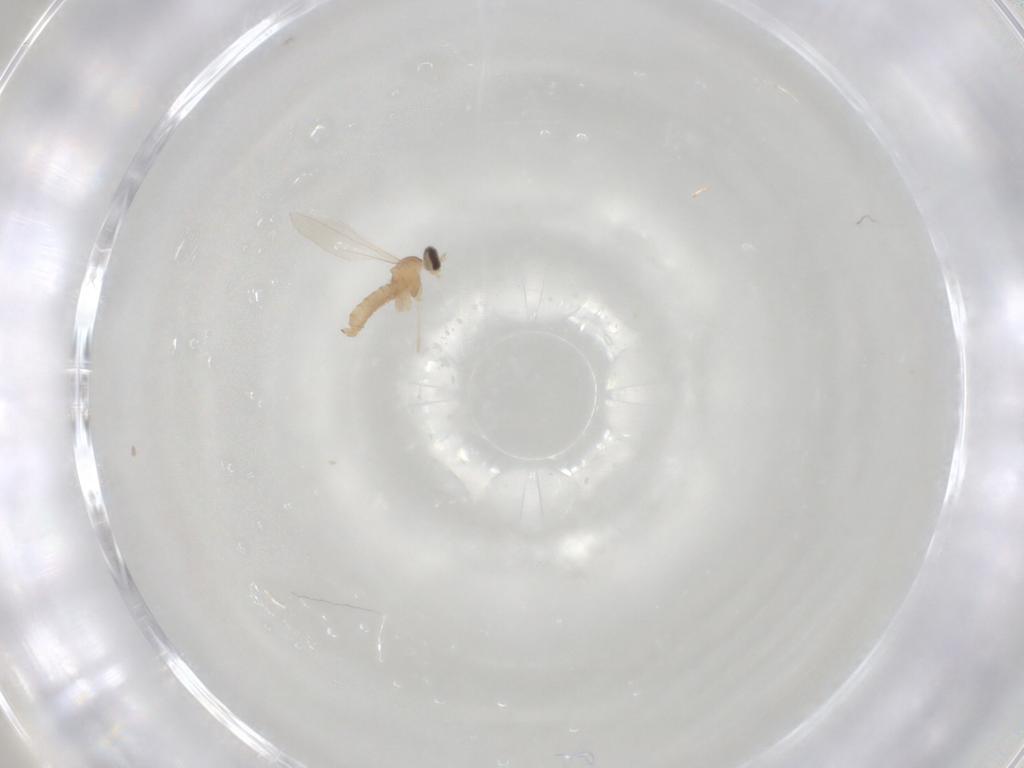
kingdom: Animalia
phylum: Arthropoda
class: Insecta
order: Diptera
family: Cecidomyiidae
